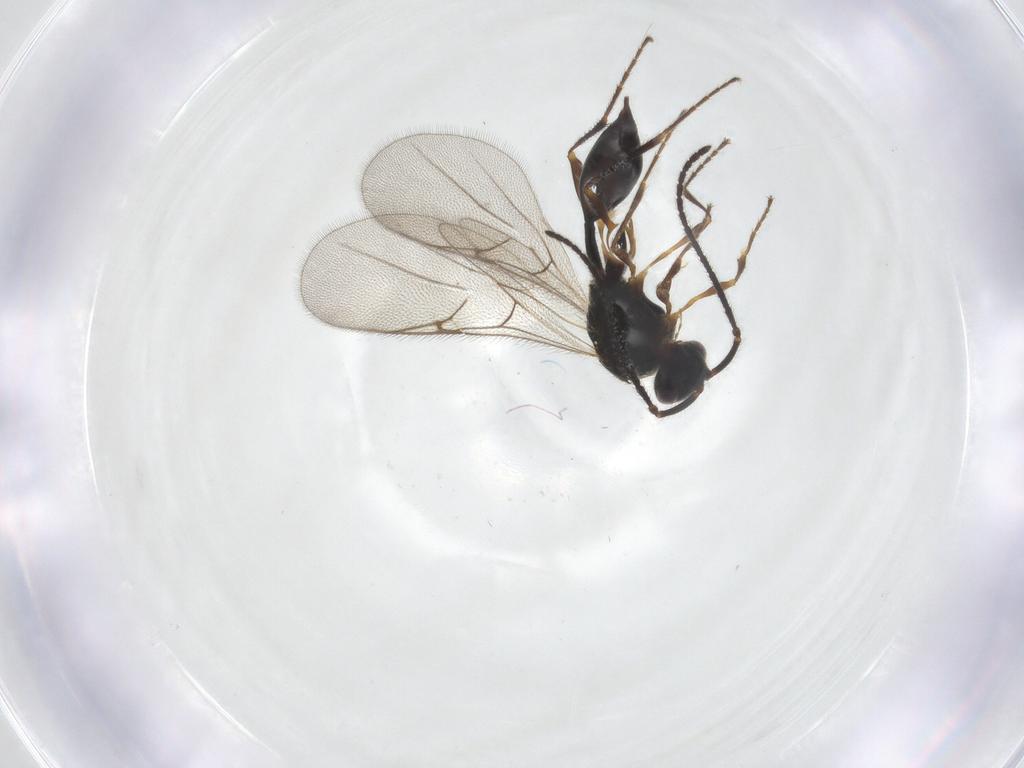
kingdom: Animalia
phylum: Arthropoda
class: Insecta
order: Hymenoptera
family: Diapriidae
